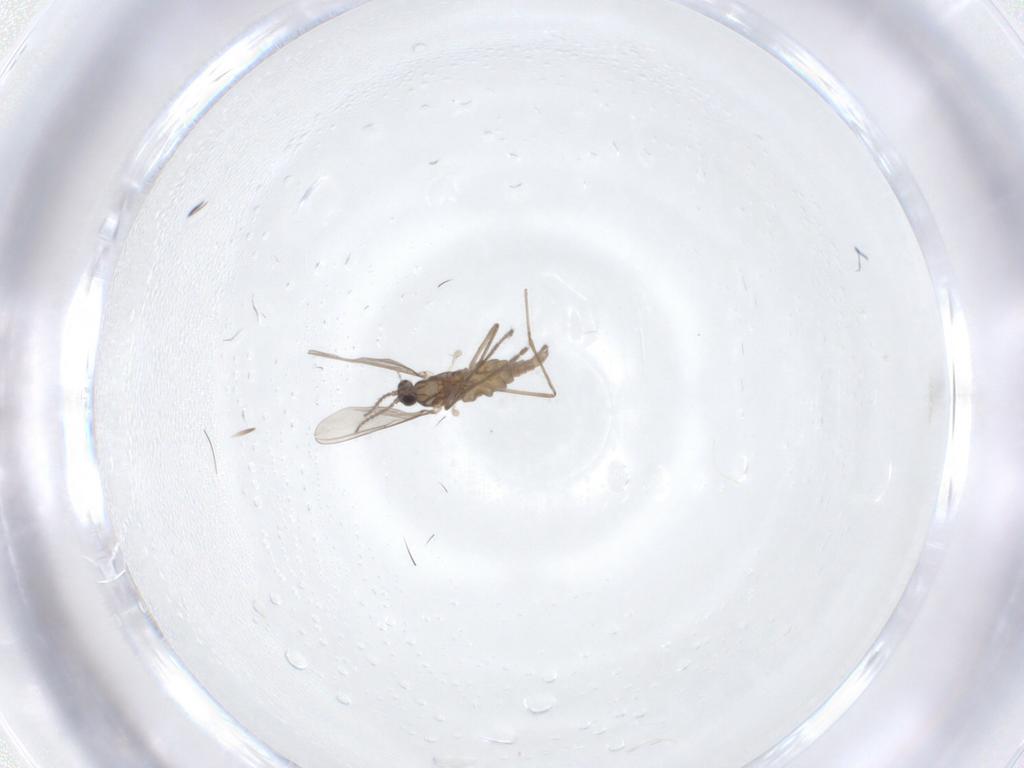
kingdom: Animalia
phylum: Arthropoda
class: Insecta
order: Diptera
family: Cecidomyiidae
